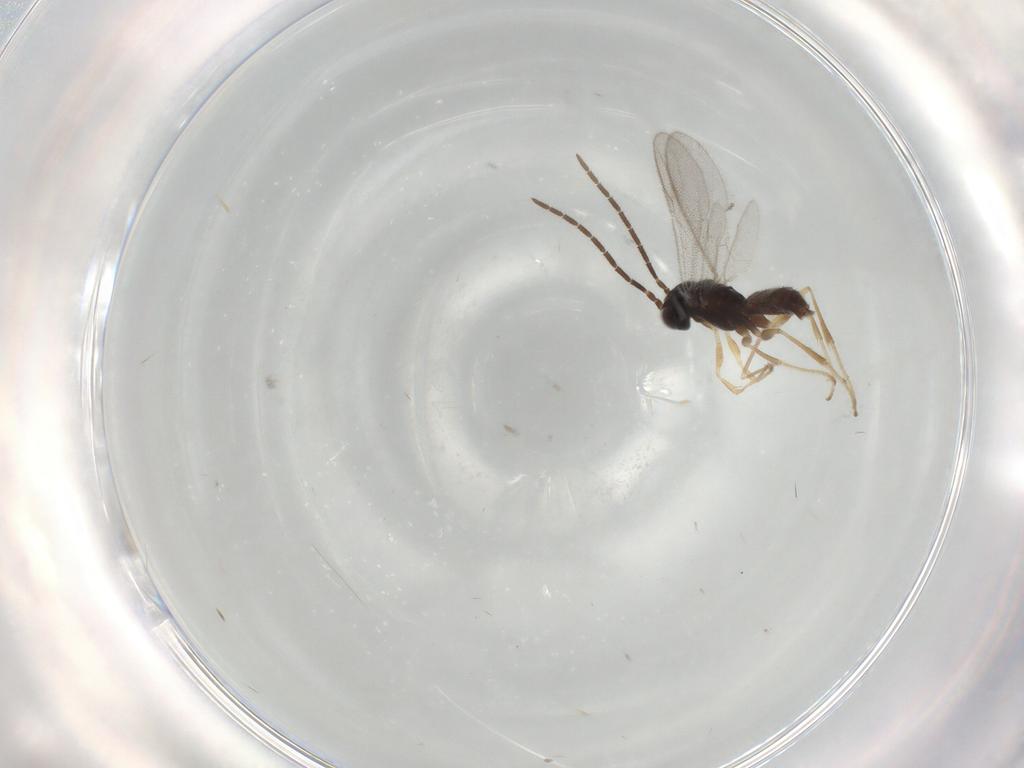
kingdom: Animalia
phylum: Arthropoda
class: Insecta
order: Hymenoptera
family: Dryinidae
